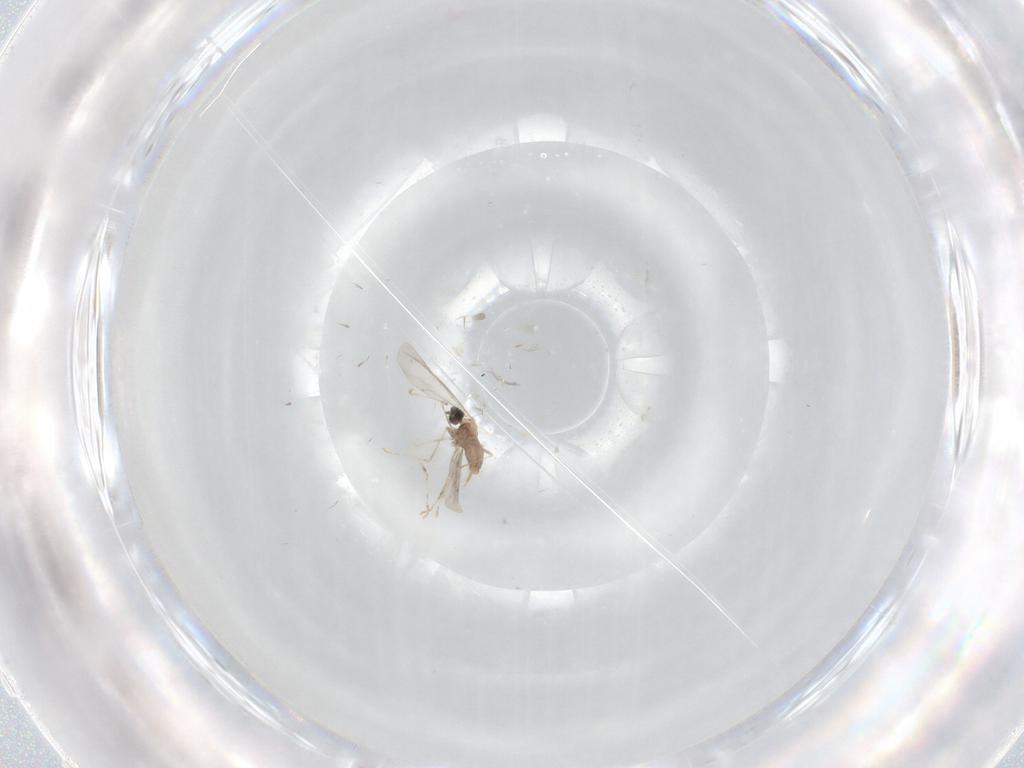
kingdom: Animalia
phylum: Arthropoda
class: Insecta
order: Diptera
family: Cecidomyiidae
